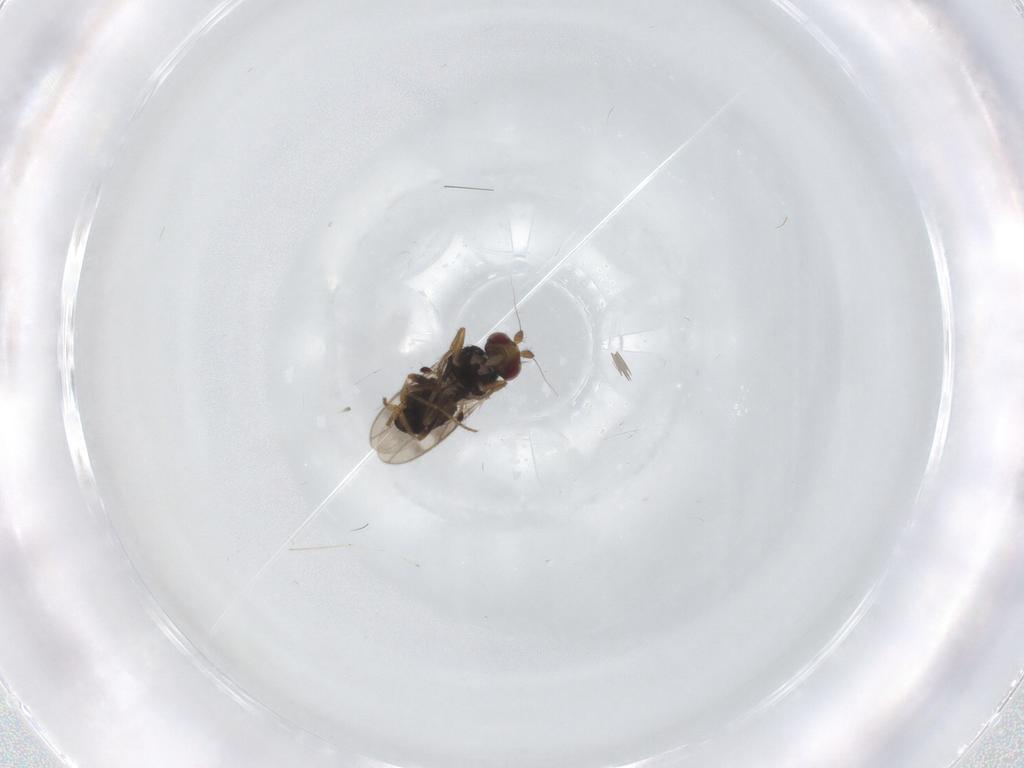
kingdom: Animalia
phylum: Arthropoda
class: Insecta
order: Diptera
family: Sphaeroceridae
